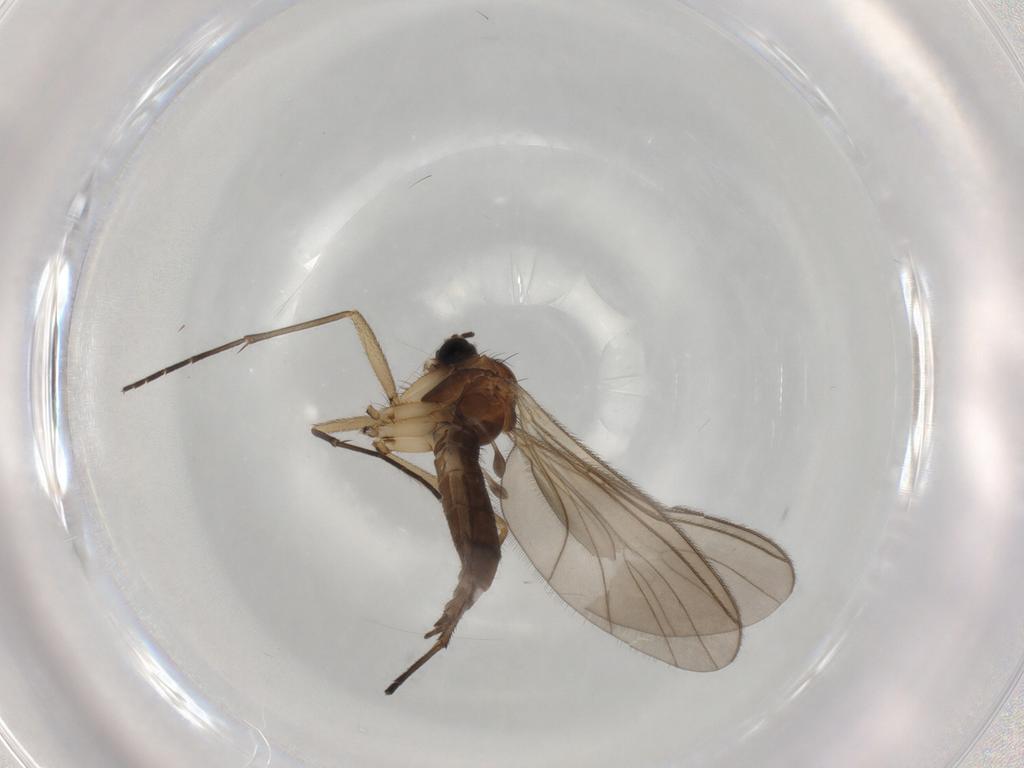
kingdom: Animalia
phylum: Arthropoda
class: Insecta
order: Diptera
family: Sciaridae
